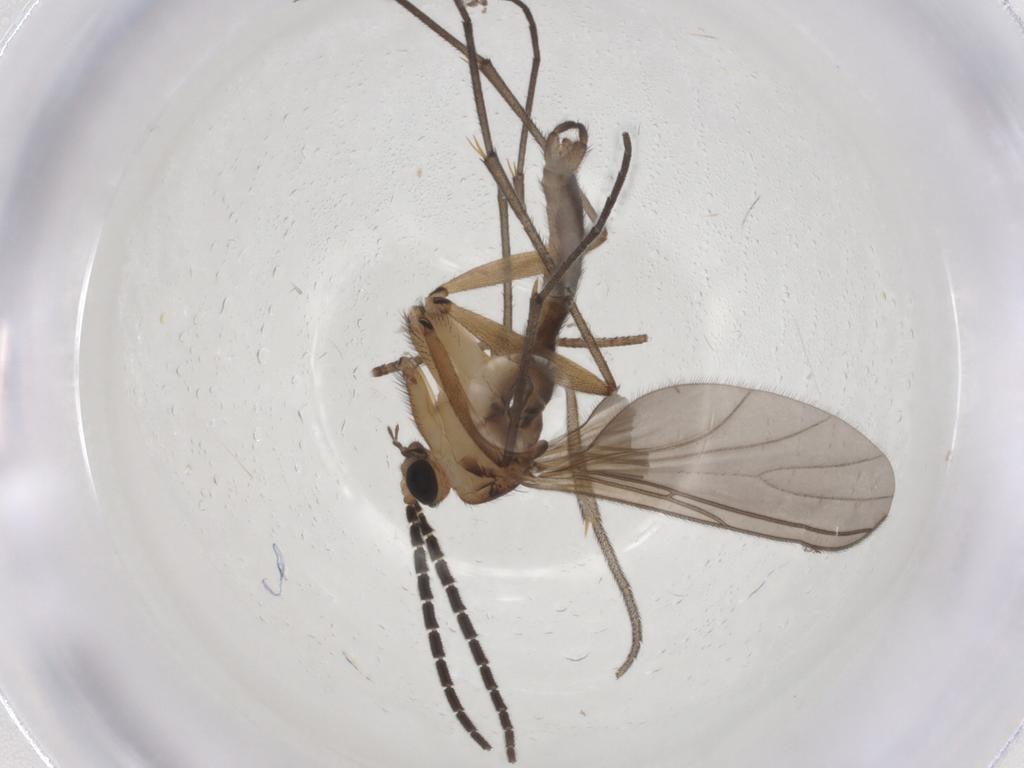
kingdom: Animalia
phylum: Arthropoda
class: Insecta
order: Diptera
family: Sciaridae
